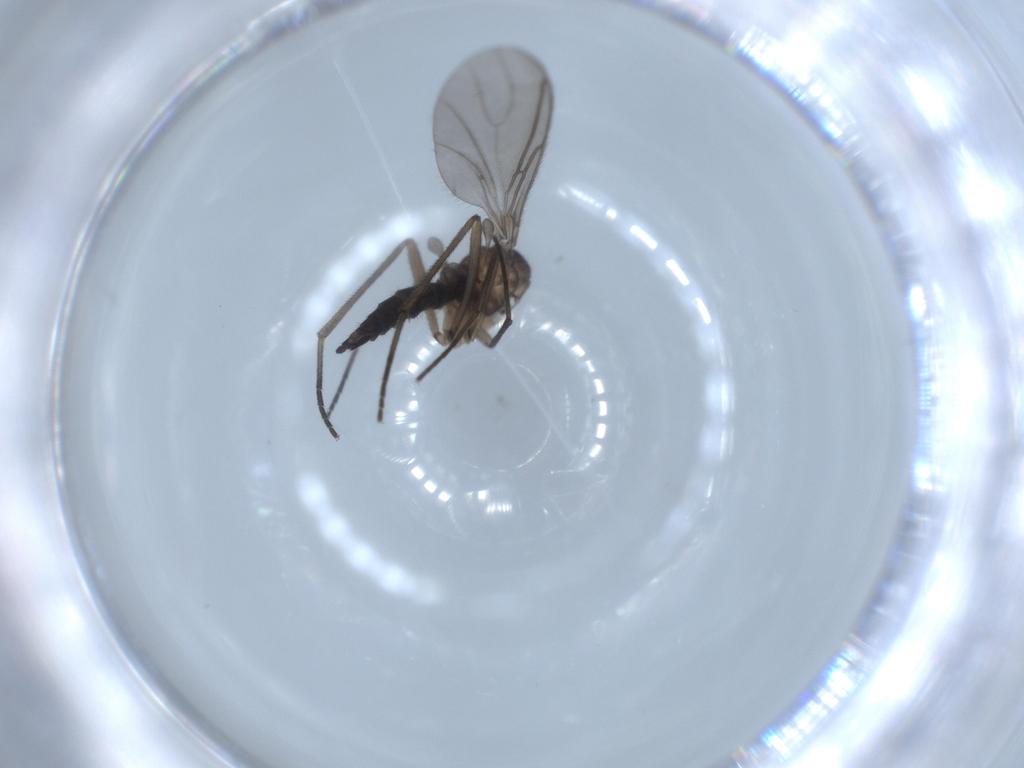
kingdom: Animalia
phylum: Arthropoda
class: Insecta
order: Diptera
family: Sciaridae
